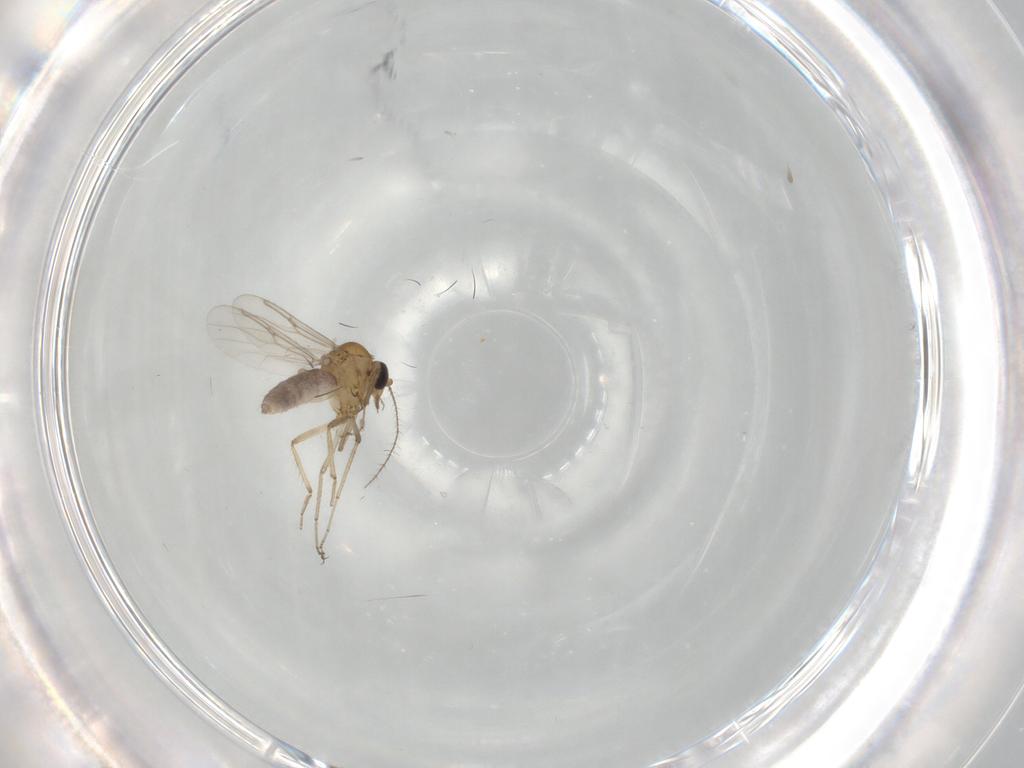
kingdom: Animalia
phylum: Arthropoda
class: Insecta
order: Diptera
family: Ceratopogonidae
